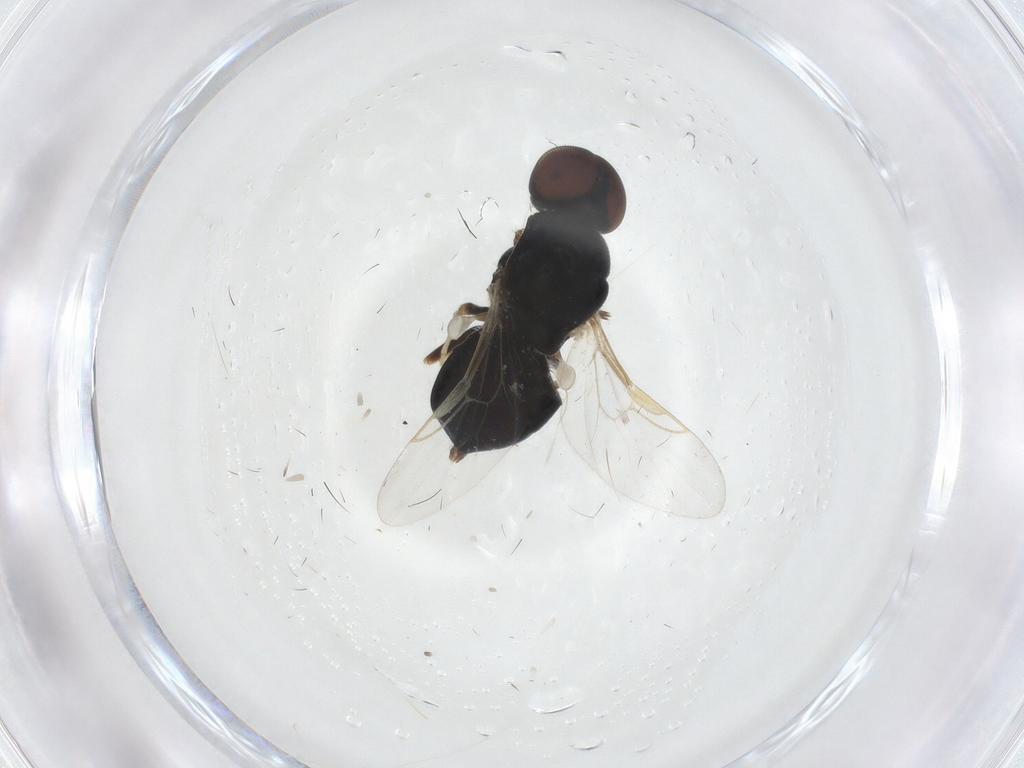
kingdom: Animalia
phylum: Arthropoda
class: Insecta
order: Diptera
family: Stratiomyidae
